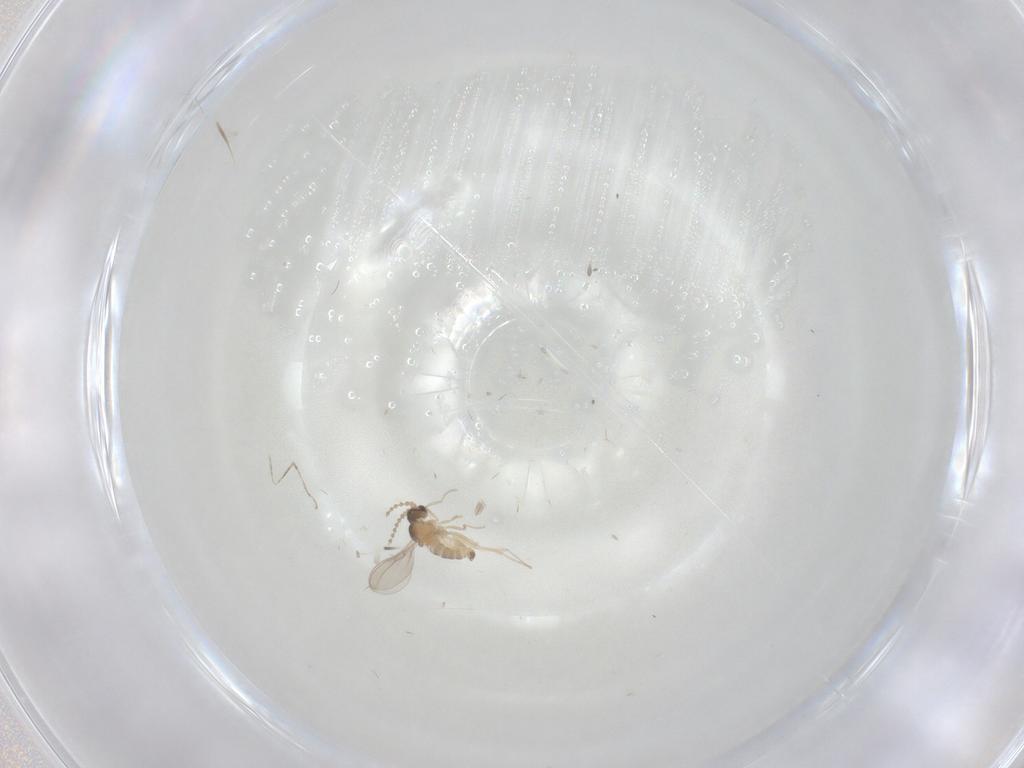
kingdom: Animalia
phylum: Arthropoda
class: Insecta
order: Diptera
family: Cecidomyiidae
